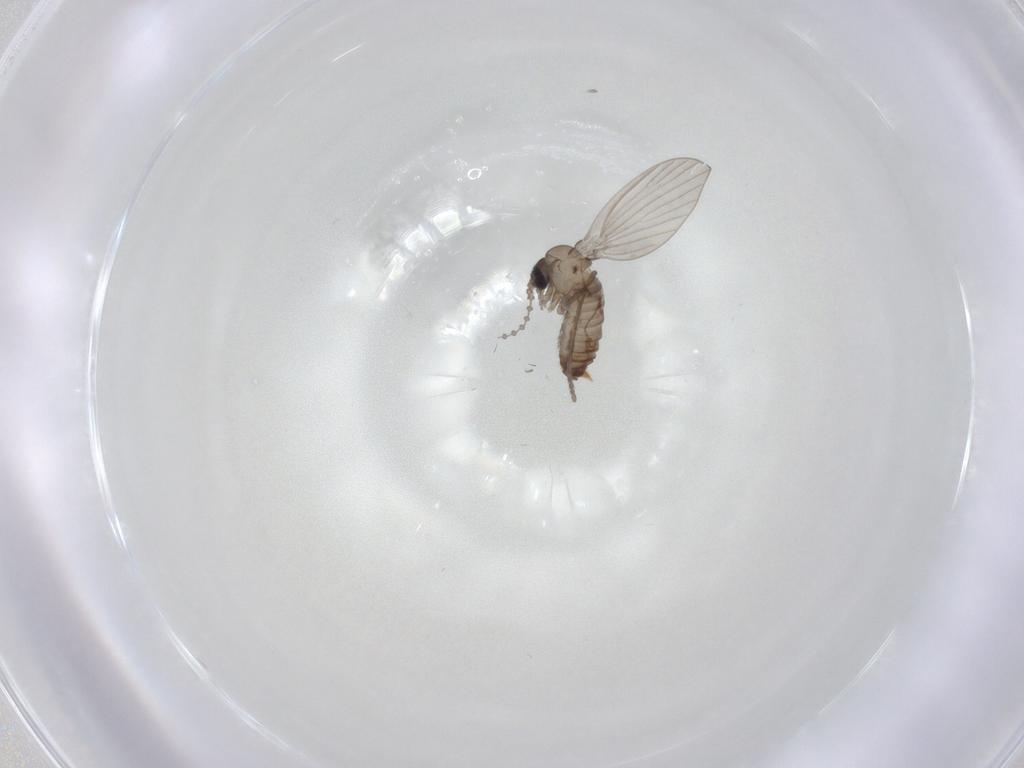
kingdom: Animalia
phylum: Arthropoda
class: Insecta
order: Diptera
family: Psychodidae
